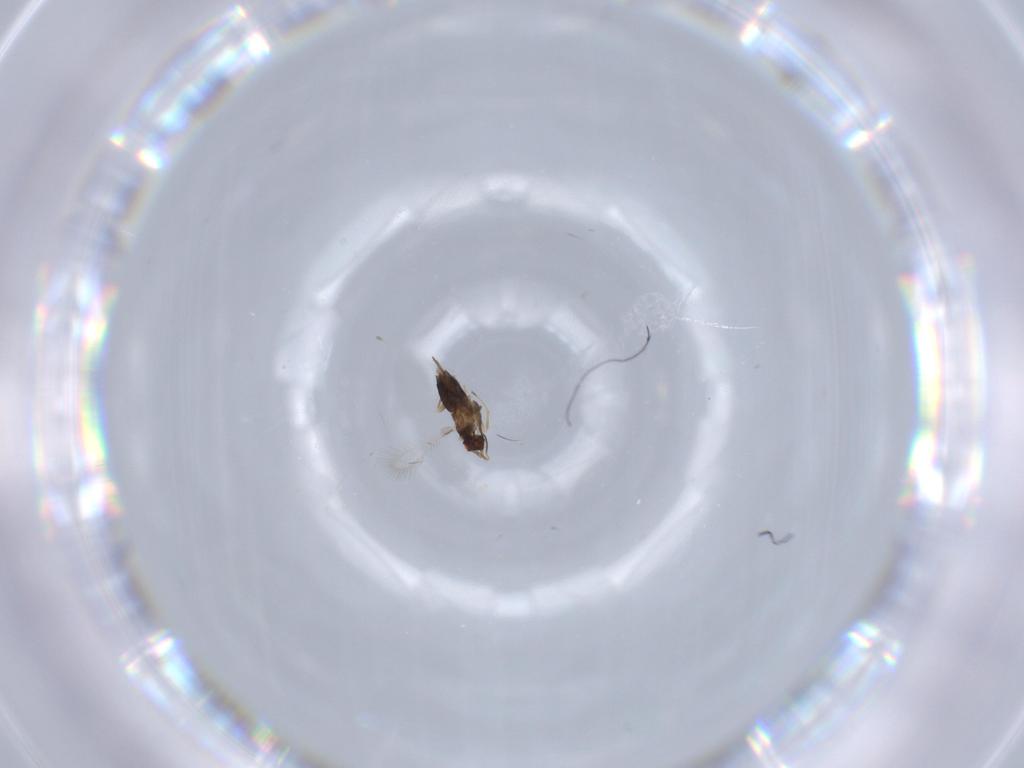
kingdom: Animalia
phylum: Arthropoda
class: Insecta
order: Hymenoptera
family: Mymaridae
